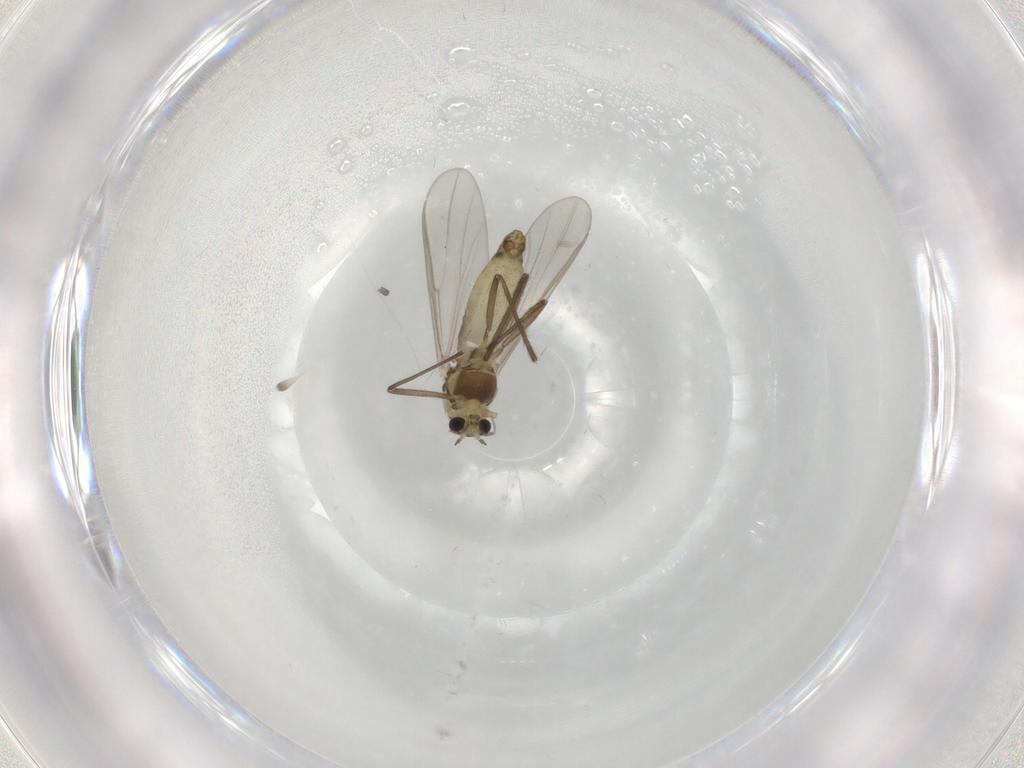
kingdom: Animalia
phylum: Arthropoda
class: Insecta
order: Diptera
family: Chironomidae
